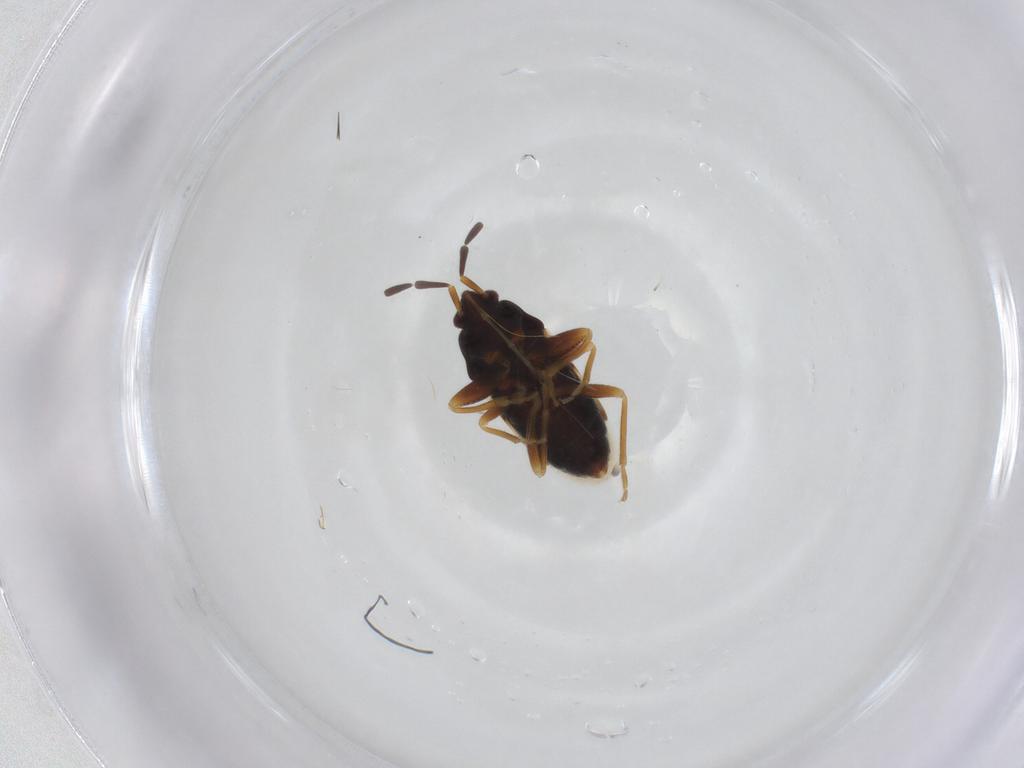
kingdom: Animalia
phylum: Arthropoda
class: Insecta
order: Hemiptera
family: Rhyparochromidae
